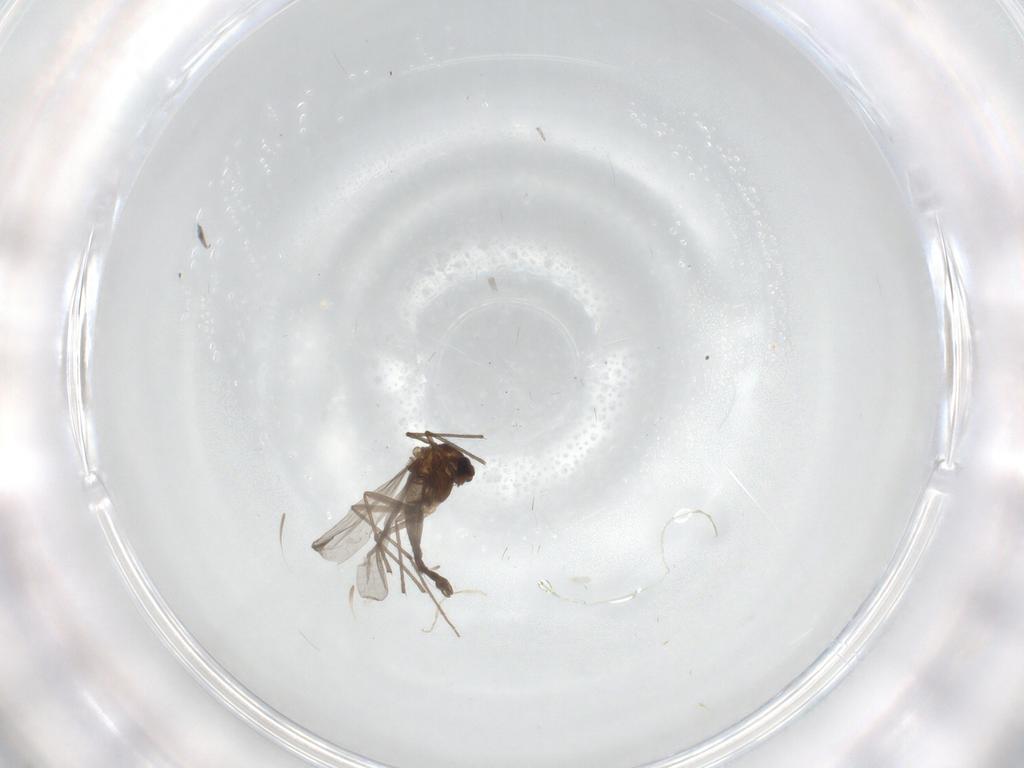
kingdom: Animalia
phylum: Arthropoda
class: Insecta
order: Diptera
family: Chironomidae
